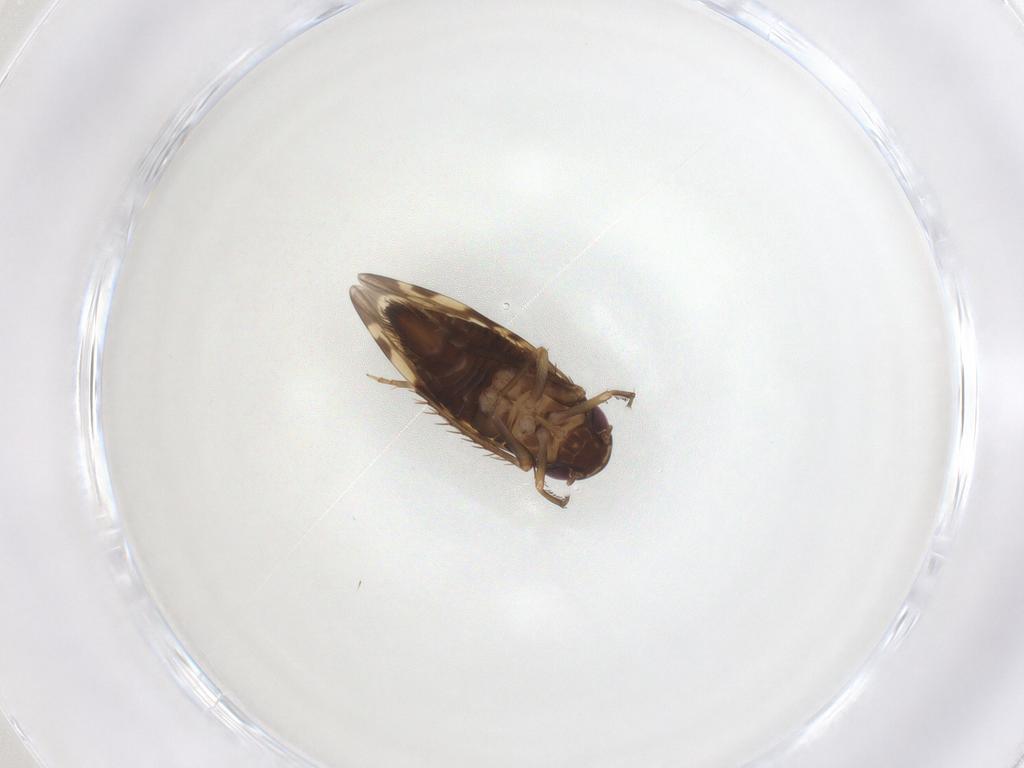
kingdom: Animalia
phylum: Arthropoda
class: Insecta
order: Hemiptera
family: Cicadellidae
